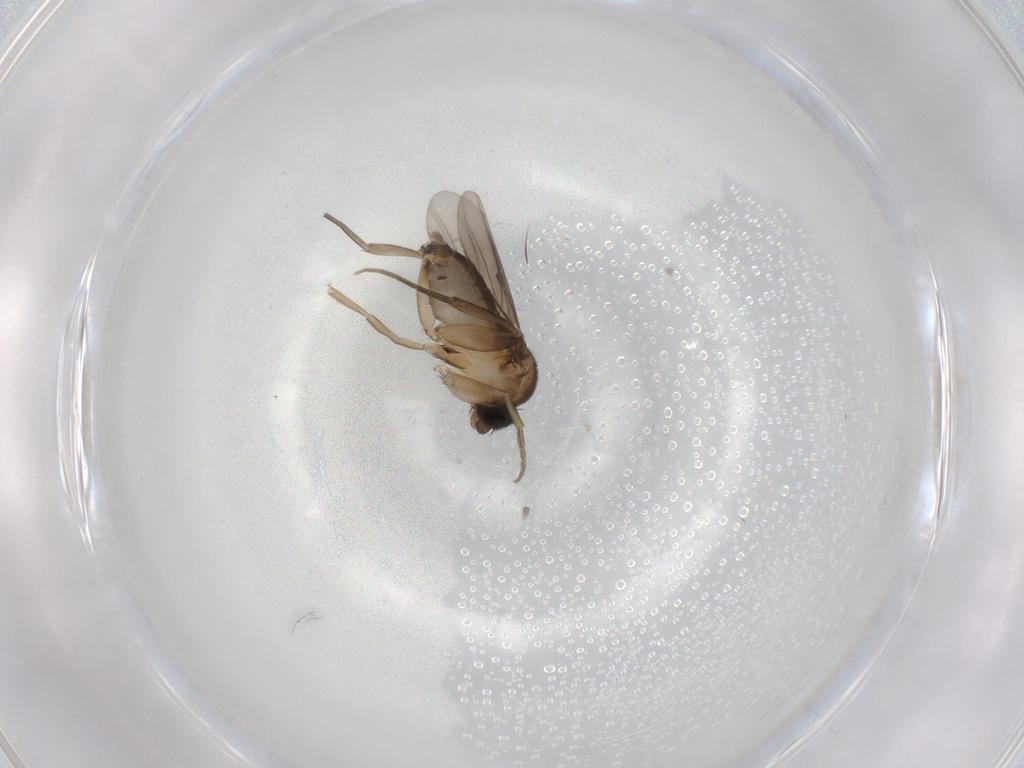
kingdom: Animalia
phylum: Arthropoda
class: Insecta
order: Diptera
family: Phoridae
